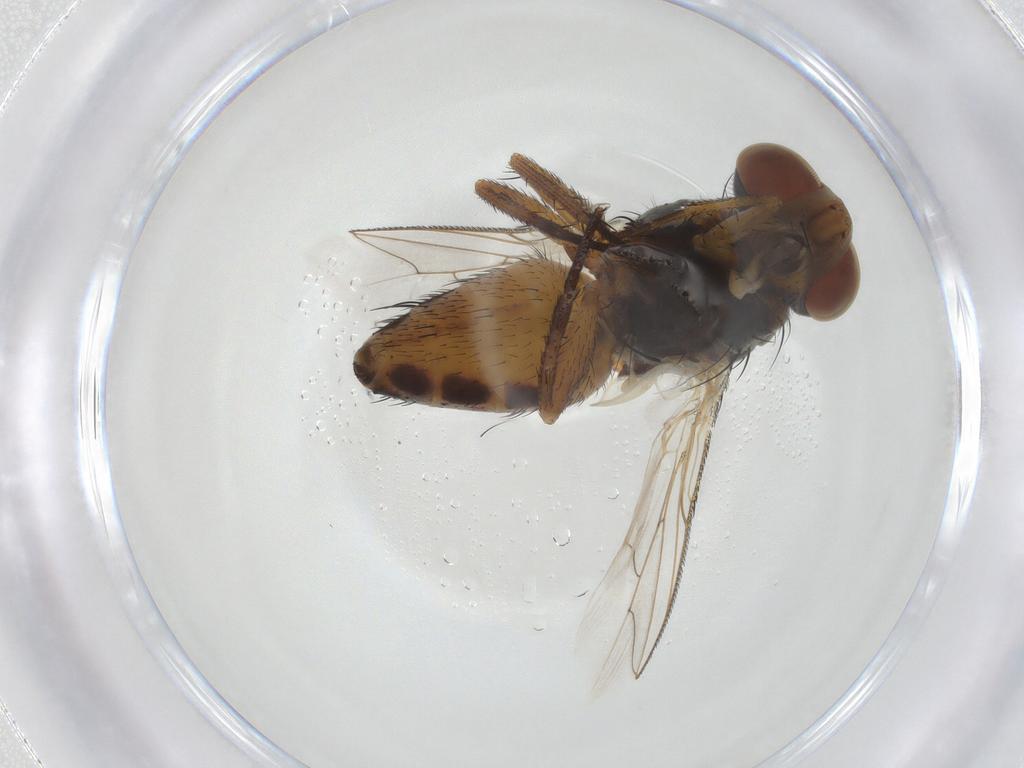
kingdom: Animalia
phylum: Arthropoda
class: Insecta
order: Diptera
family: Sarcophagidae
